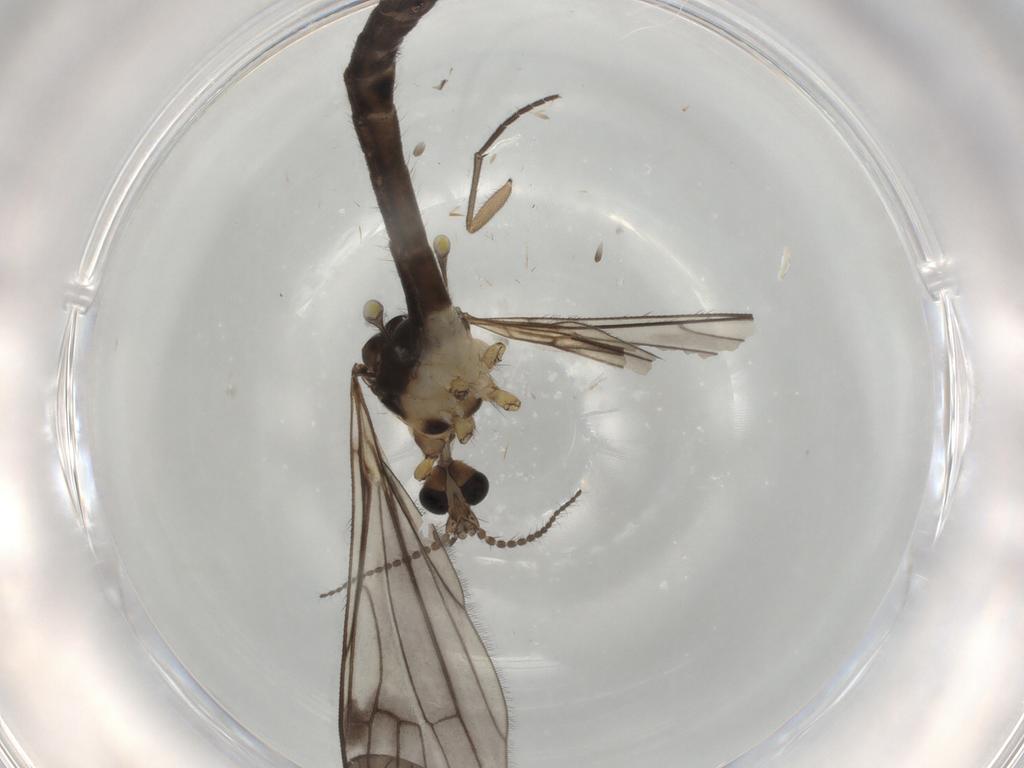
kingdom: Animalia
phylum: Arthropoda
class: Insecta
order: Diptera
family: Limoniidae
